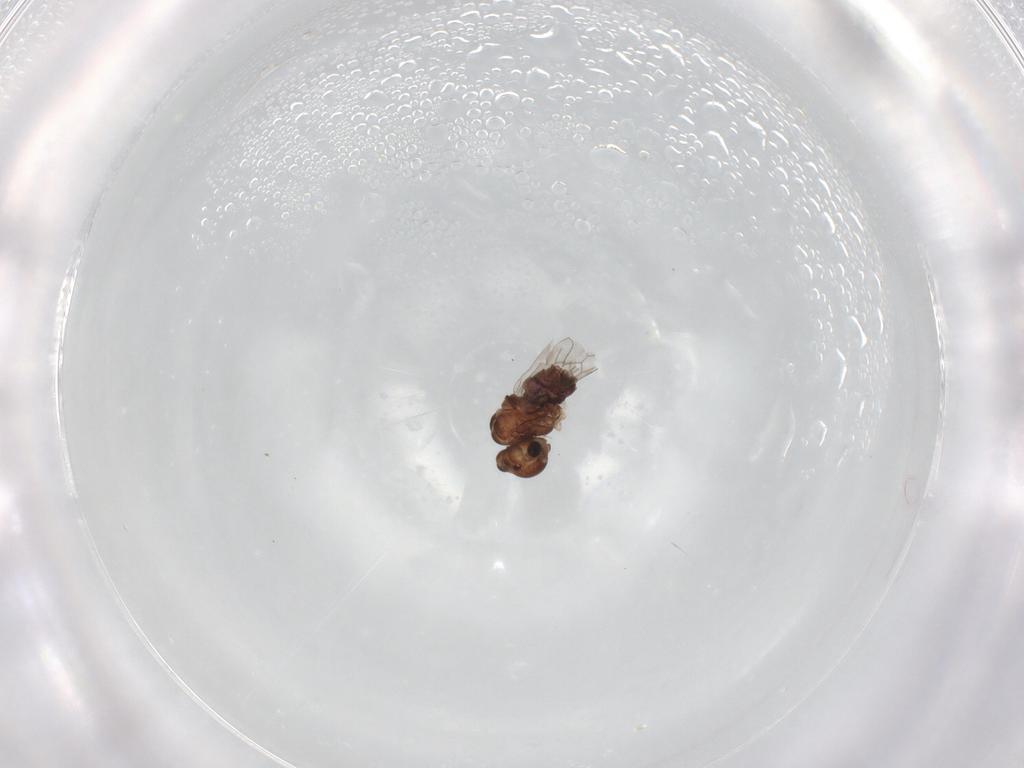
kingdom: Animalia
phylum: Arthropoda
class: Insecta
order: Psocodea
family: Lachesillidae
